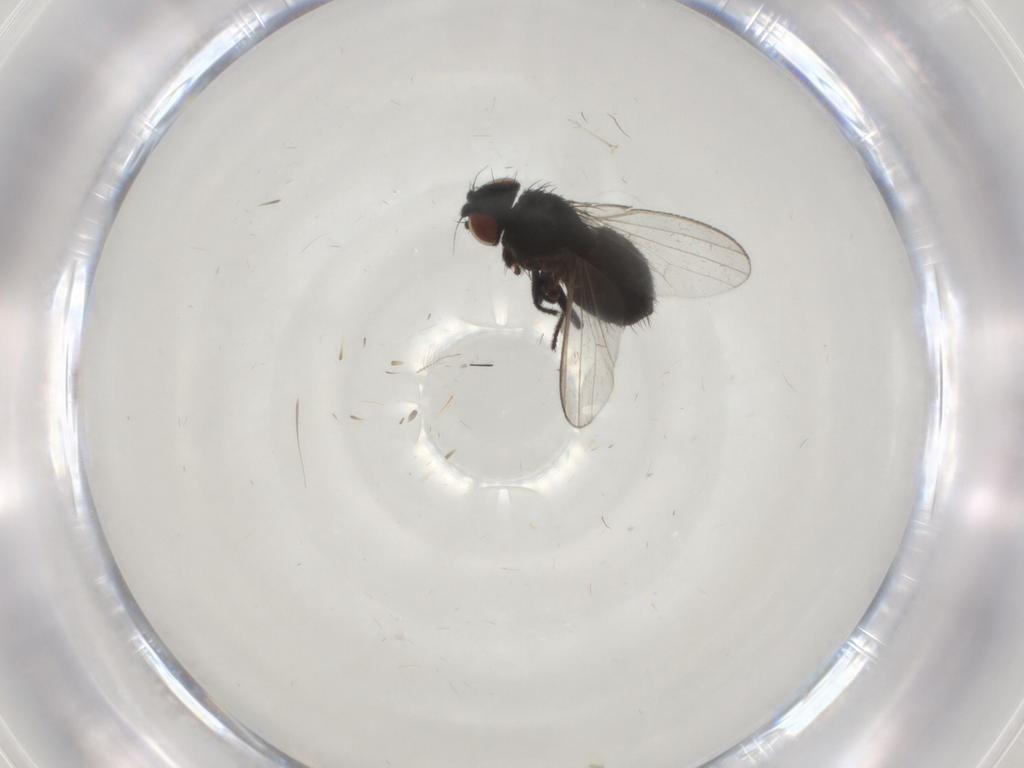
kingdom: Animalia
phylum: Arthropoda
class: Insecta
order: Diptera
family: Milichiidae
